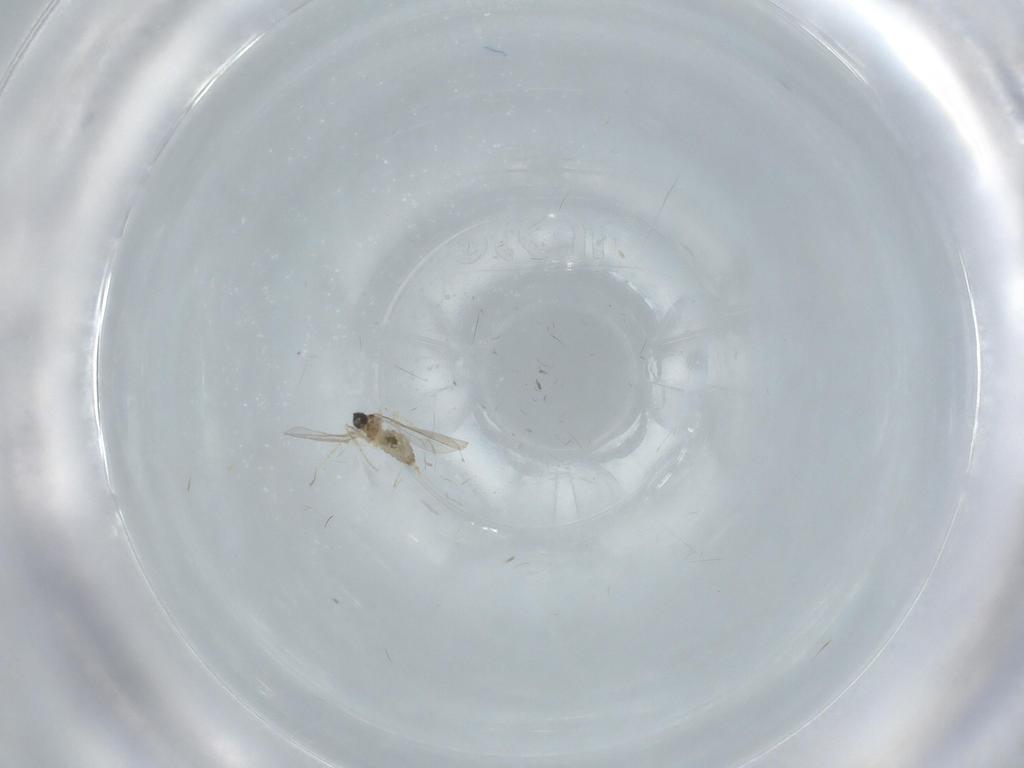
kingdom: Animalia
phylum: Arthropoda
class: Insecta
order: Diptera
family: Cecidomyiidae
